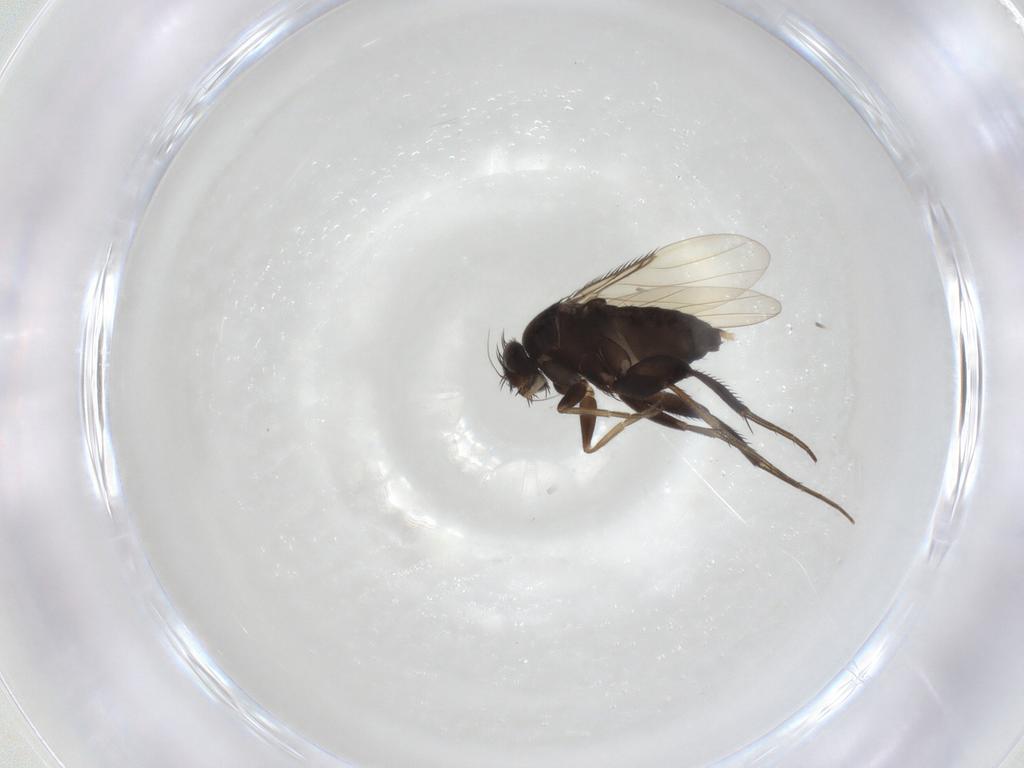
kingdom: Animalia
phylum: Arthropoda
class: Insecta
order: Diptera
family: Phoridae
